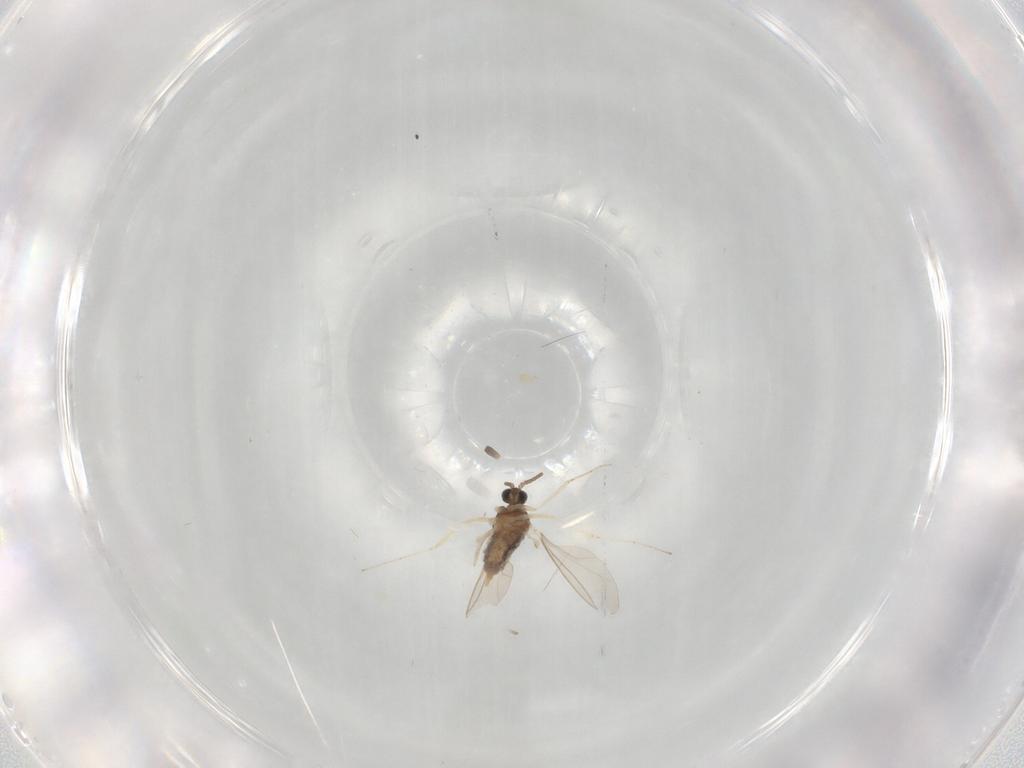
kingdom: Animalia
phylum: Arthropoda
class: Insecta
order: Diptera
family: Cecidomyiidae
